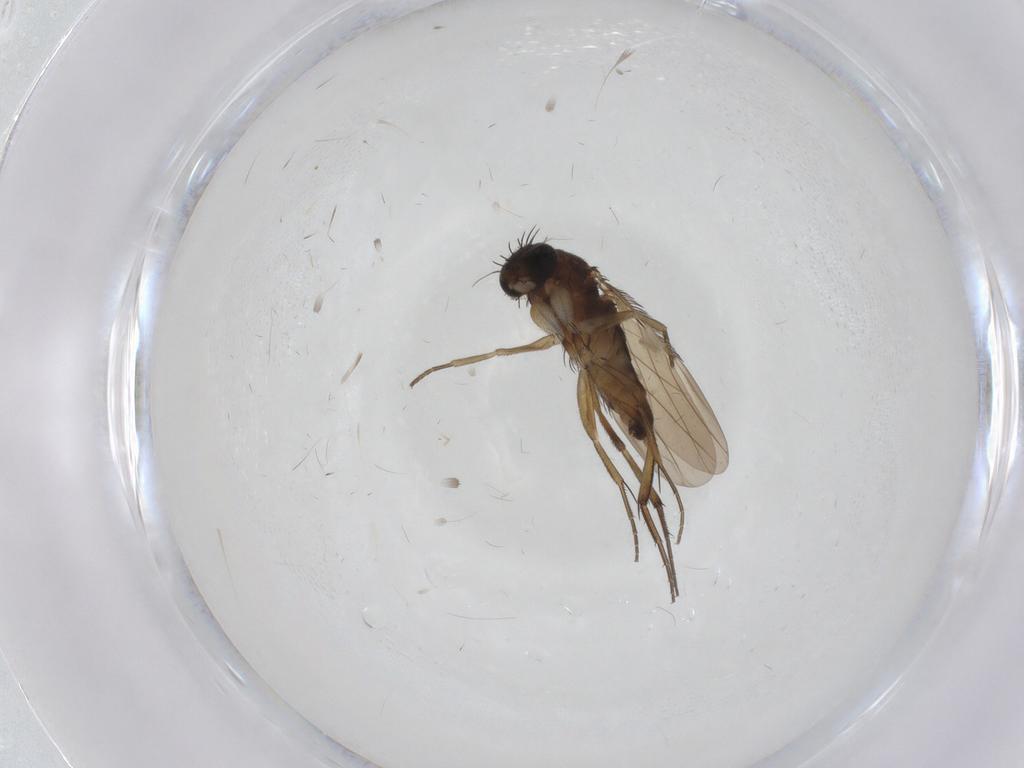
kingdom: Animalia
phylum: Arthropoda
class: Insecta
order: Diptera
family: Phoridae
